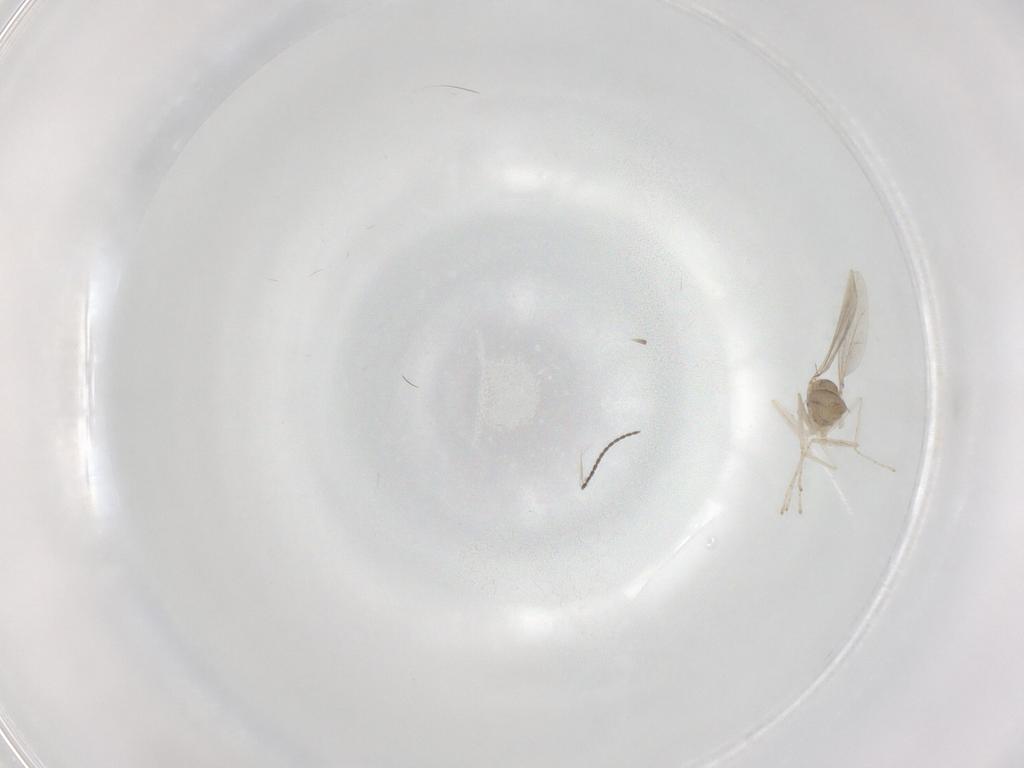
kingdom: Animalia
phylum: Arthropoda
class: Insecta
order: Diptera
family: Cecidomyiidae
